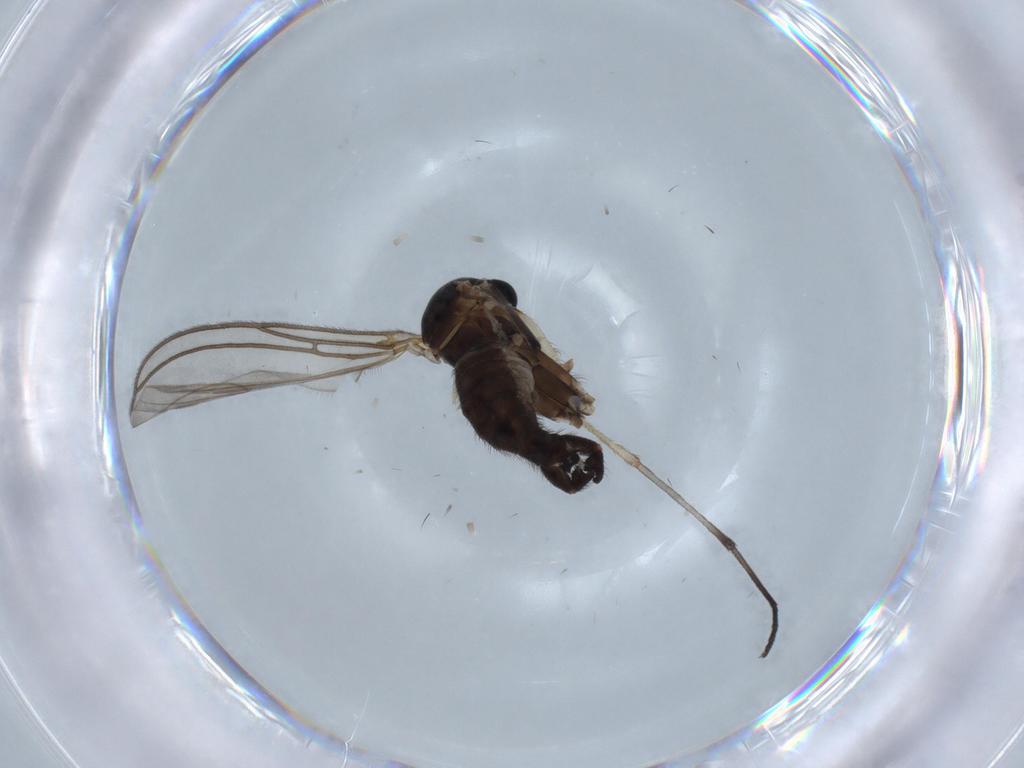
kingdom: Animalia
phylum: Arthropoda
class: Insecta
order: Diptera
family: Sciaridae
